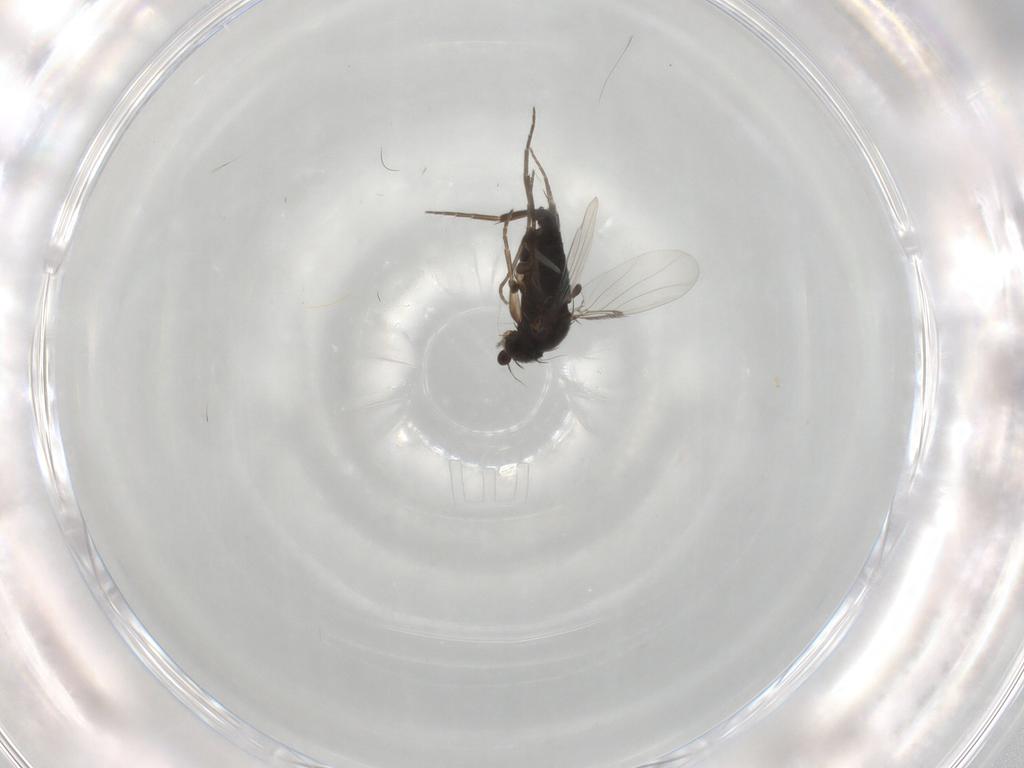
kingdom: Animalia
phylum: Arthropoda
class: Insecta
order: Diptera
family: Phoridae
